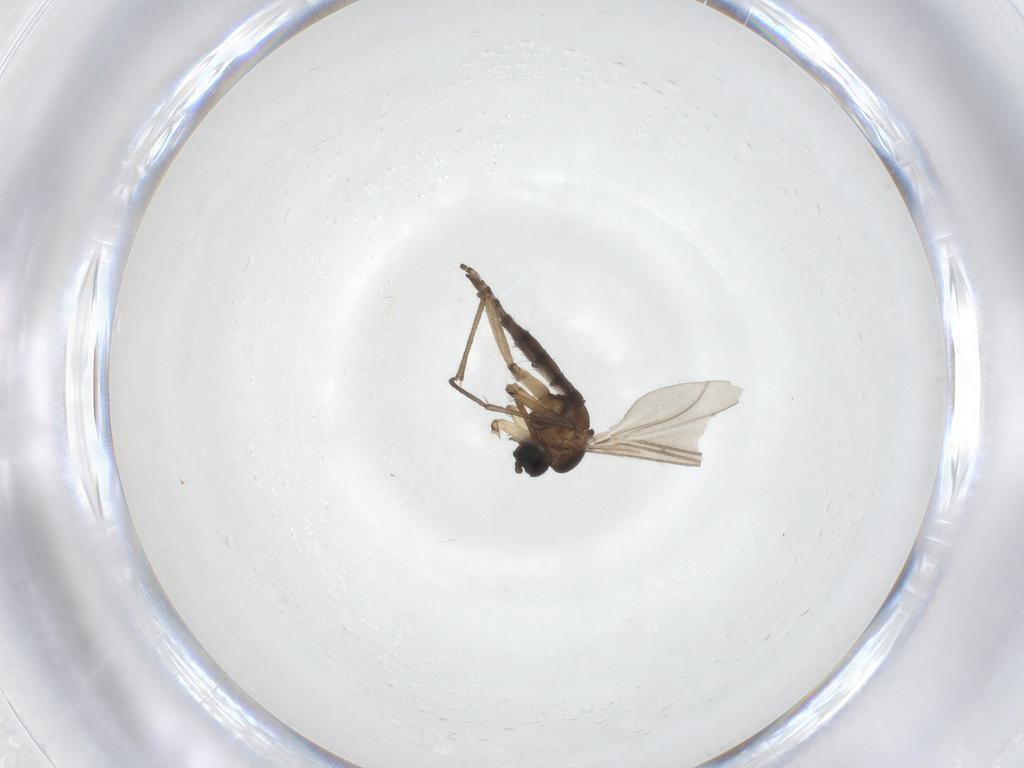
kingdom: Animalia
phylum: Arthropoda
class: Insecta
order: Diptera
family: Sciaridae
